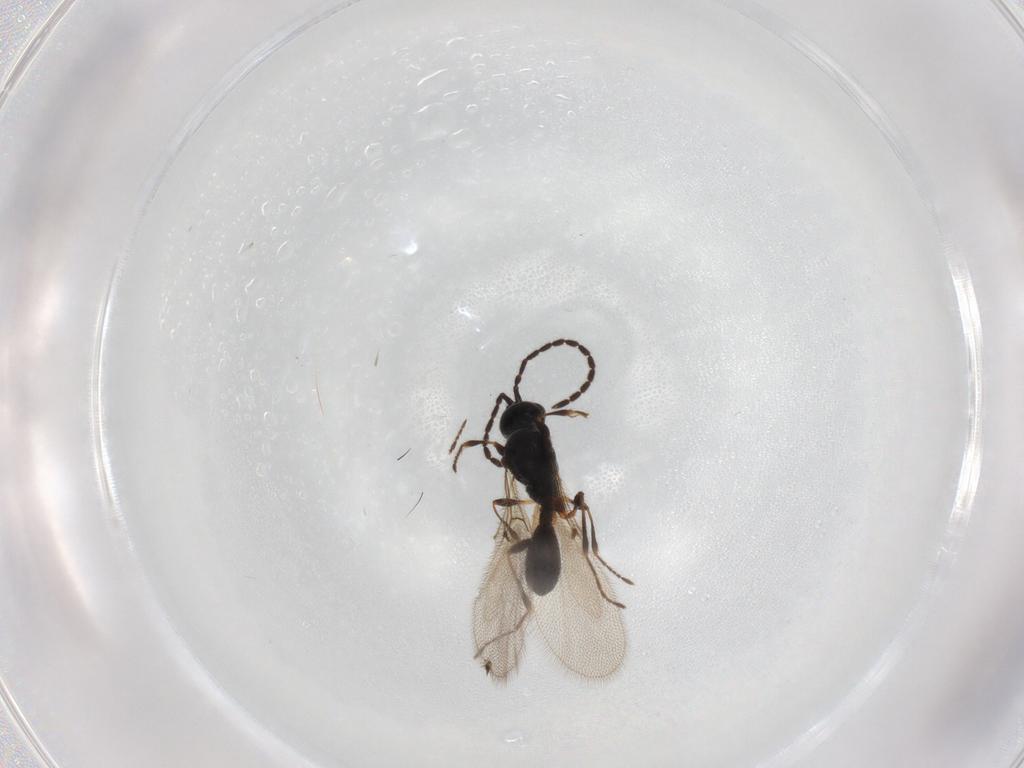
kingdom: Animalia
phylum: Arthropoda
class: Insecta
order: Hymenoptera
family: Diapriidae
